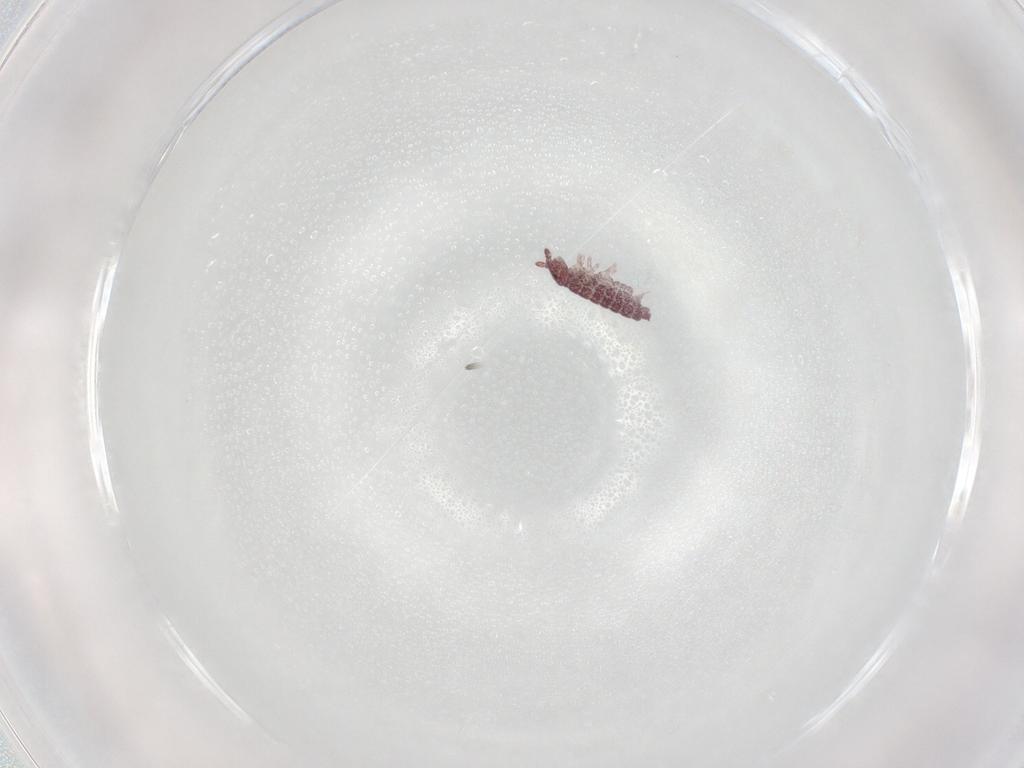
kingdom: Animalia
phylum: Arthropoda
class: Collembola
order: Poduromorpha
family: Hypogastruridae
